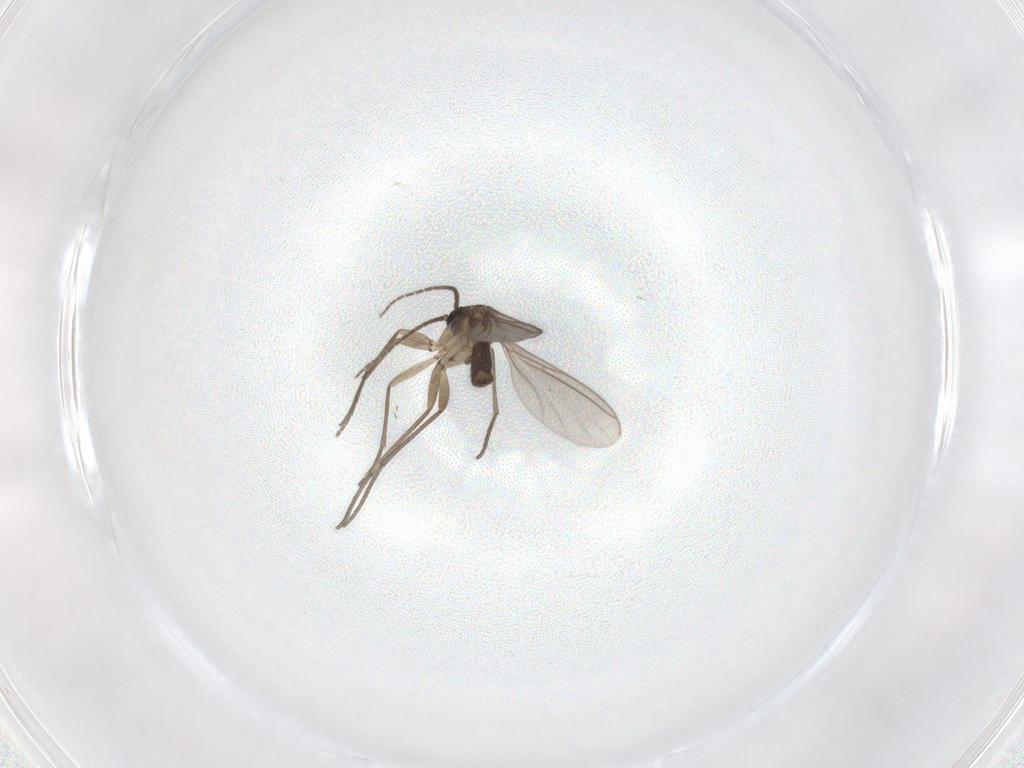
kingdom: Animalia
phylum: Arthropoda
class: Insecta
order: Diptera
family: Sciaridae
